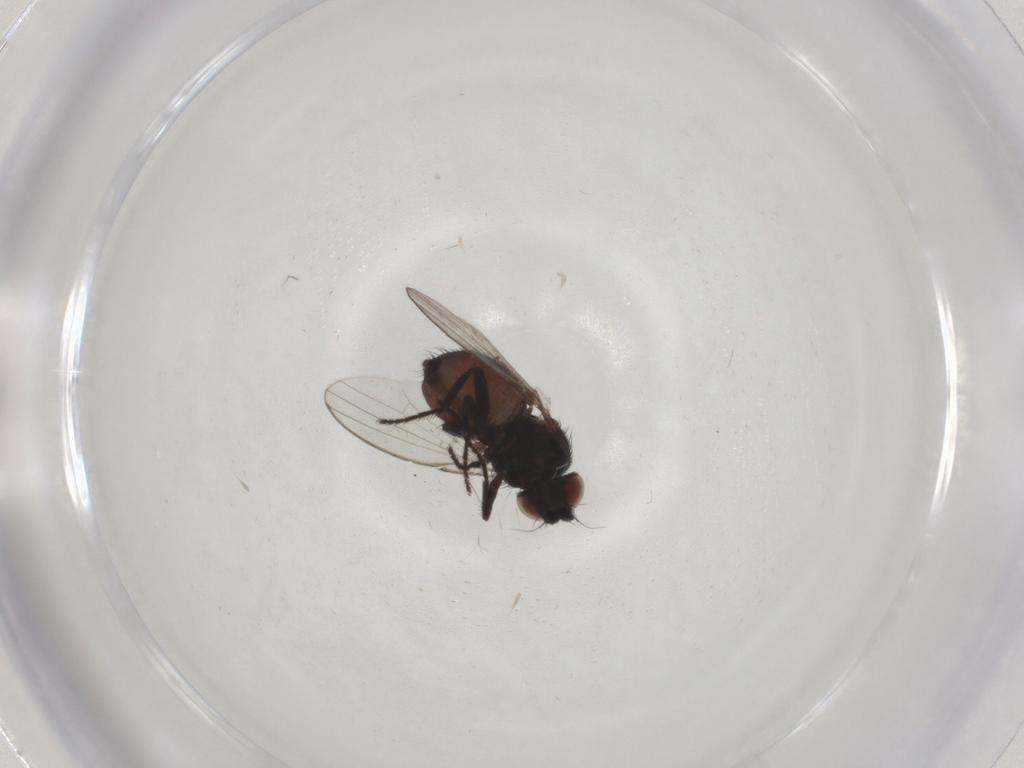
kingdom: Animalia
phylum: Arthropoda
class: Insecta
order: Diptera
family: Milichiidae
